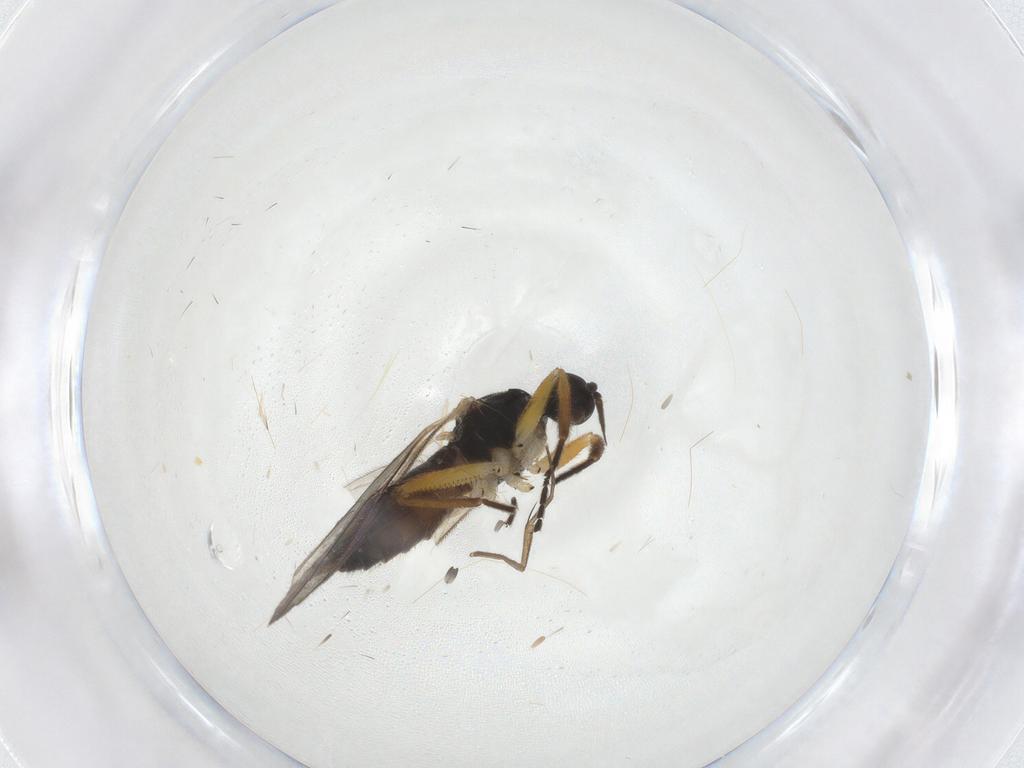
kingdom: Animalia
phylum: Arthropoda
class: Insecta
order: Diptera
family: Hybotidae
